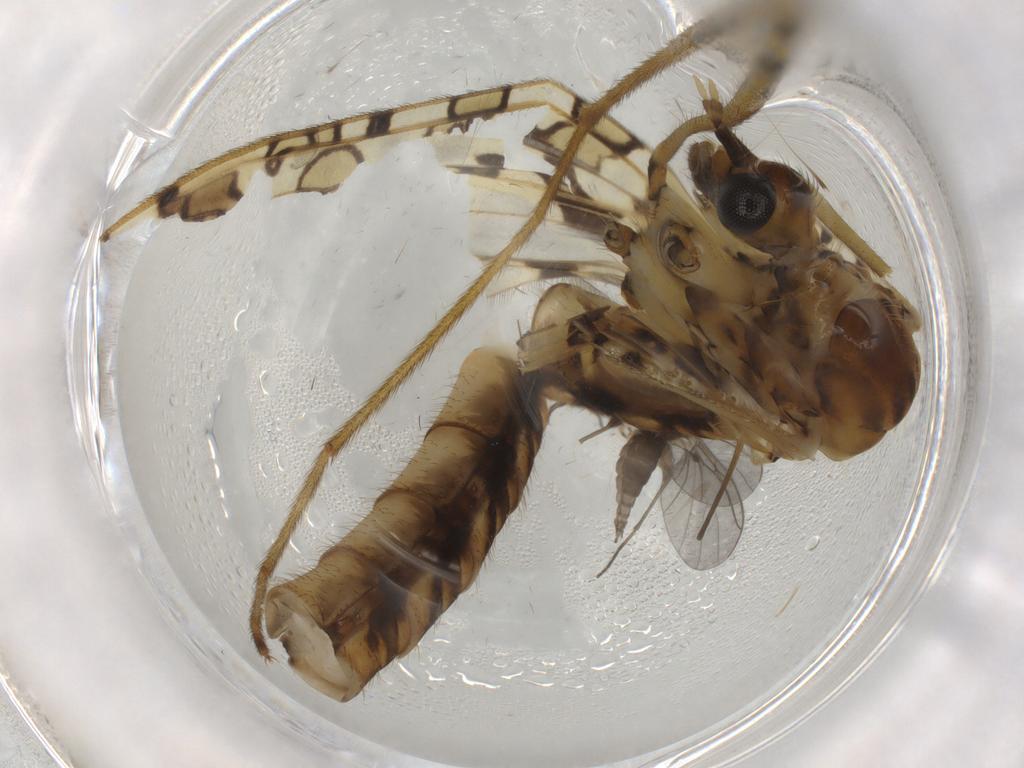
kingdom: Animalia
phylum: Arthropoda
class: Insecta
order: Diptera
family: Limoniidae
